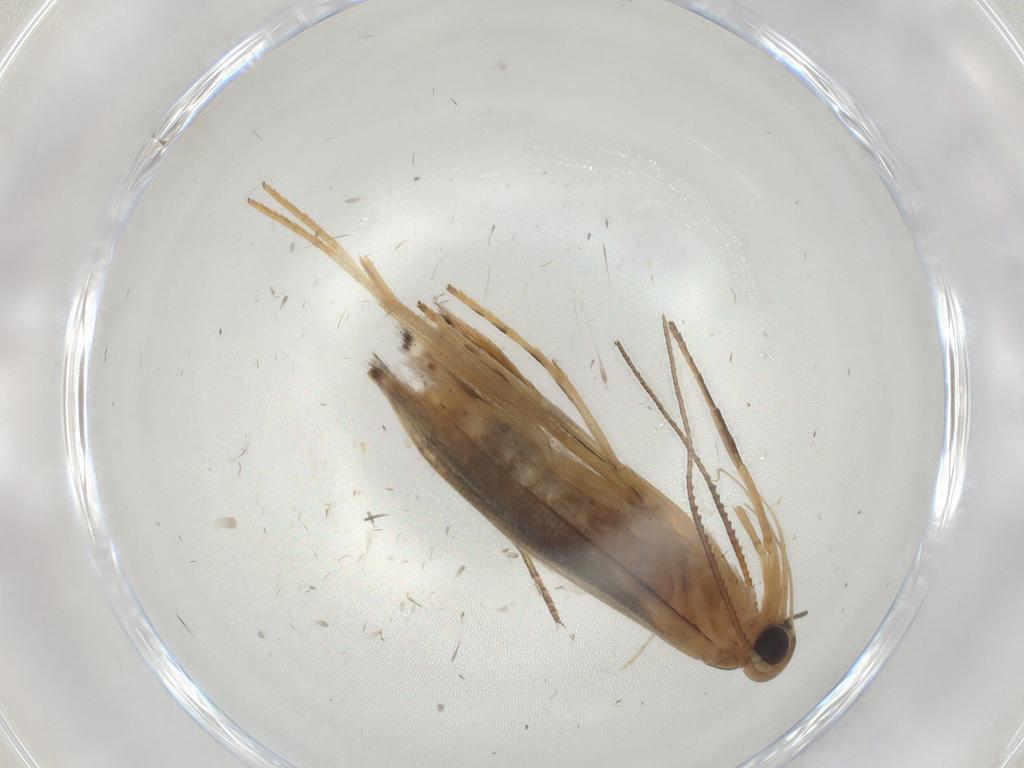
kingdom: Animalia
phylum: Arthropoda
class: Insecta
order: Lepidoptera
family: Gelechiidae
